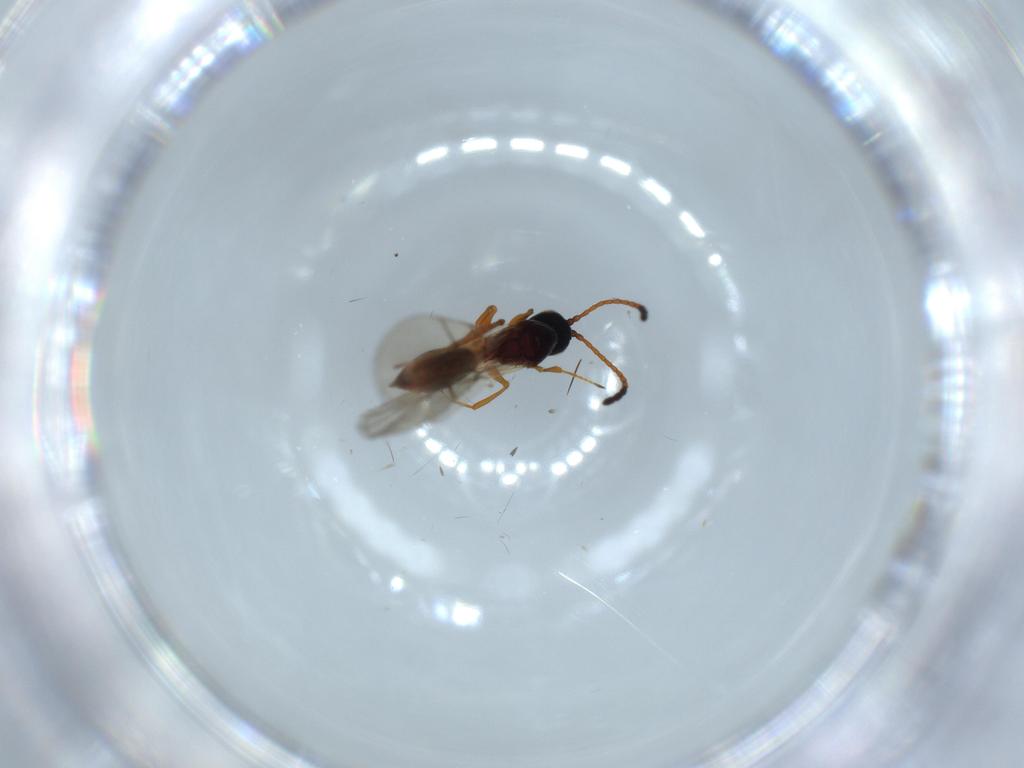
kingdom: Animalia
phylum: Arthropoda
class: Insecta
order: Hymenoptera
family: Figitidae
